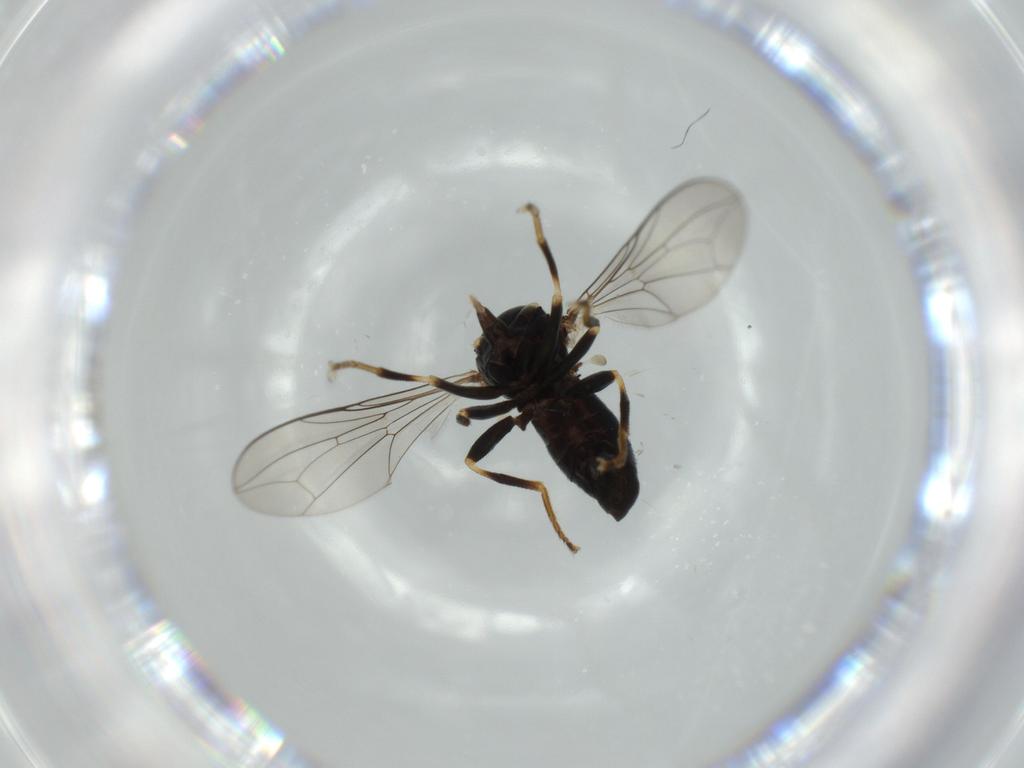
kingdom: Animalia
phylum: Arthropoda
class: Insecta
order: Diptera
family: Pipunculidae
